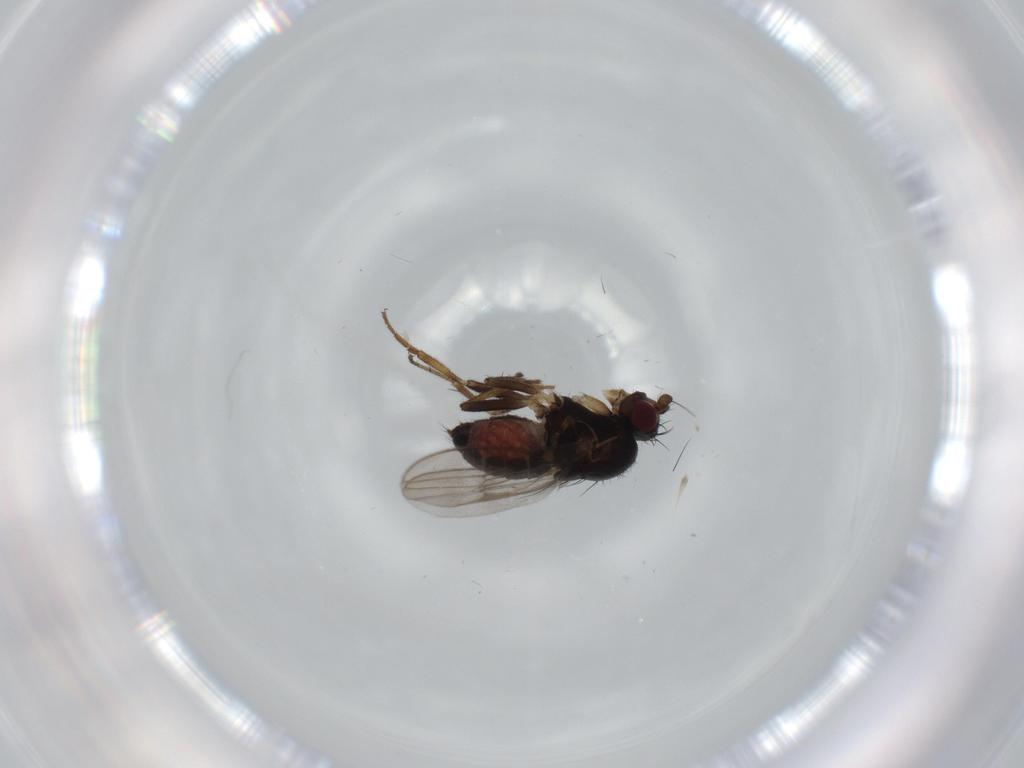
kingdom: Animalia
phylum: Arthropoda
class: Insecta
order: Diptera
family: Sphaeroceridae
